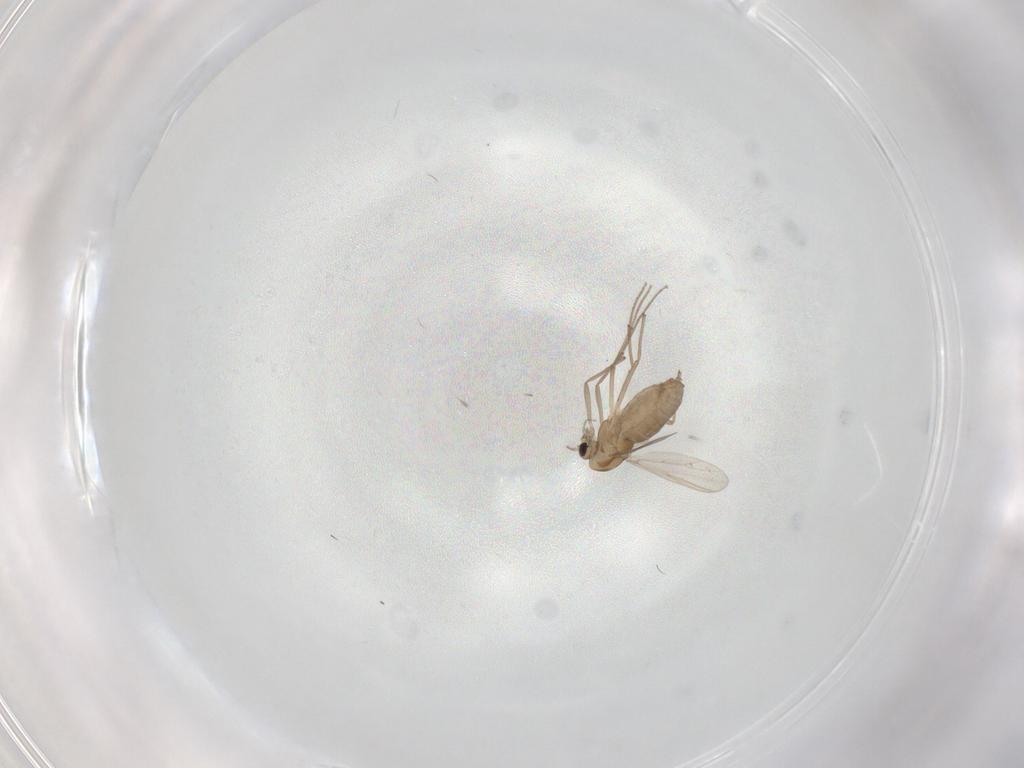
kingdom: Animalia
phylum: Arthropoda
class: Insecta
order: Diptera
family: Chironomidae
